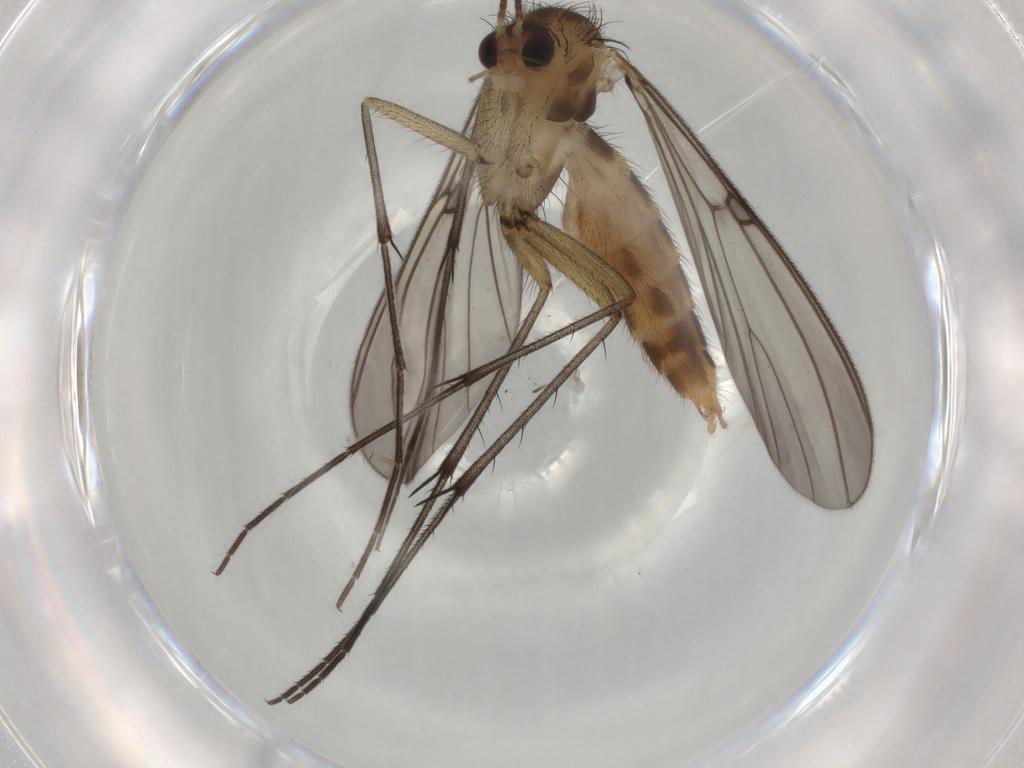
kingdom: Animalia
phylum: Arthropoda
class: Insecta
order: Diptera
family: Mycetophilidae
